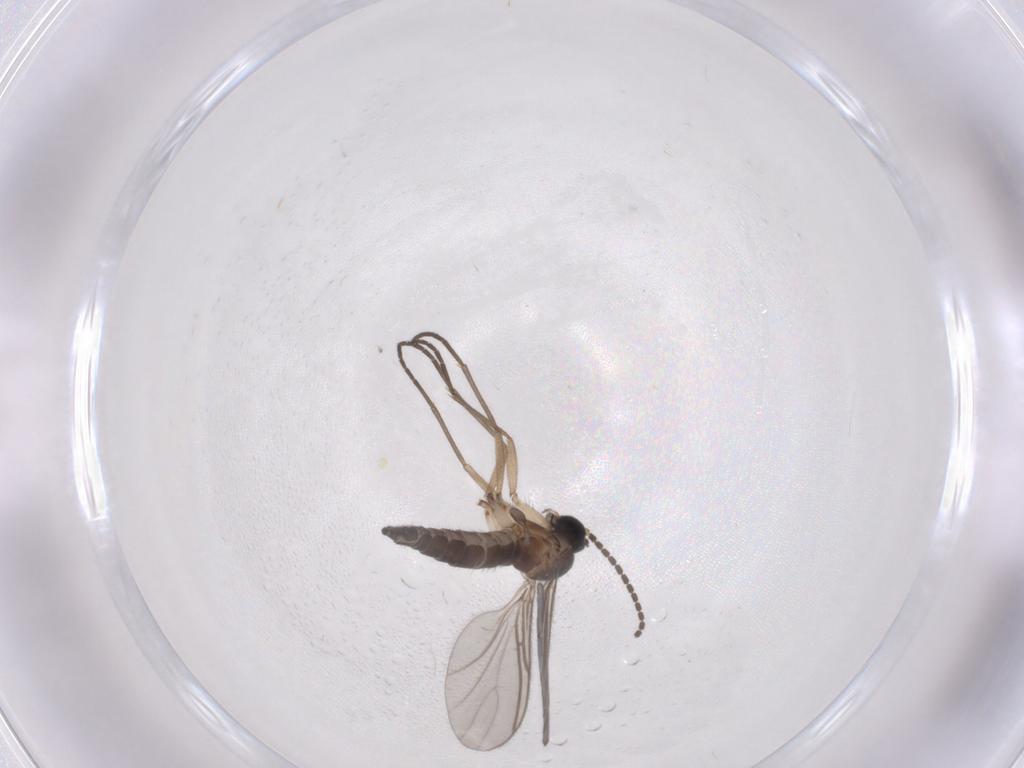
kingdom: Animalia
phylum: Arthropoda
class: Insecta
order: Diptera
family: Sciaridae
